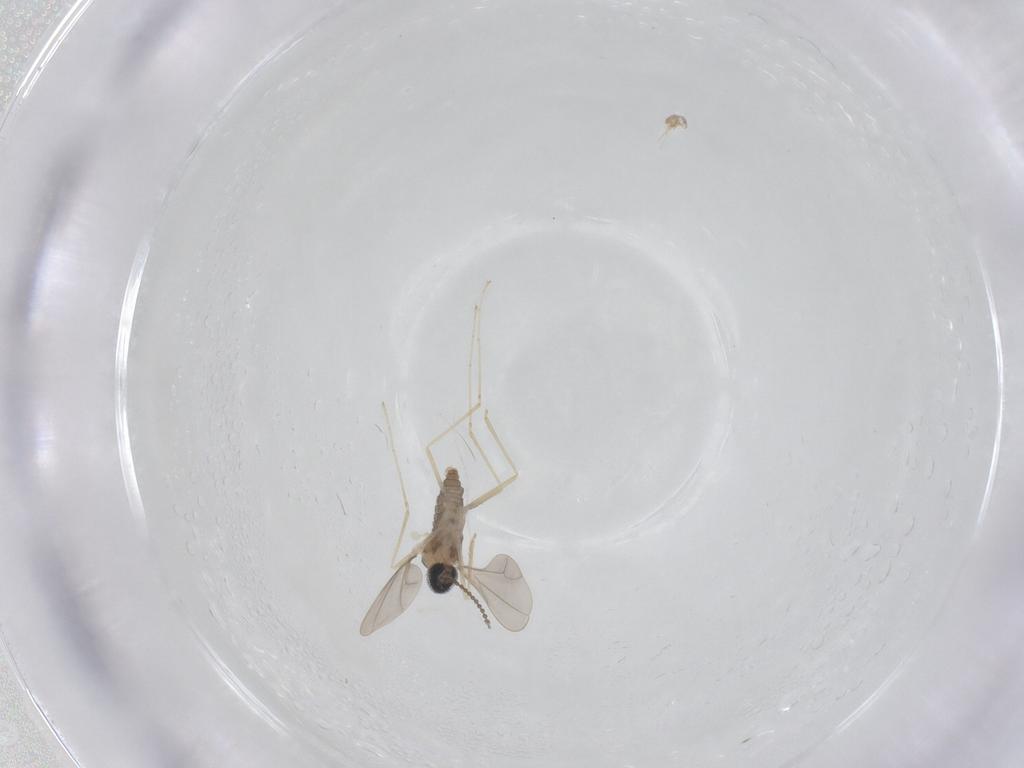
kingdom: Animalia
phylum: Arthropoda
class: Insecta
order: Diptera
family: Cecidomyiidae
